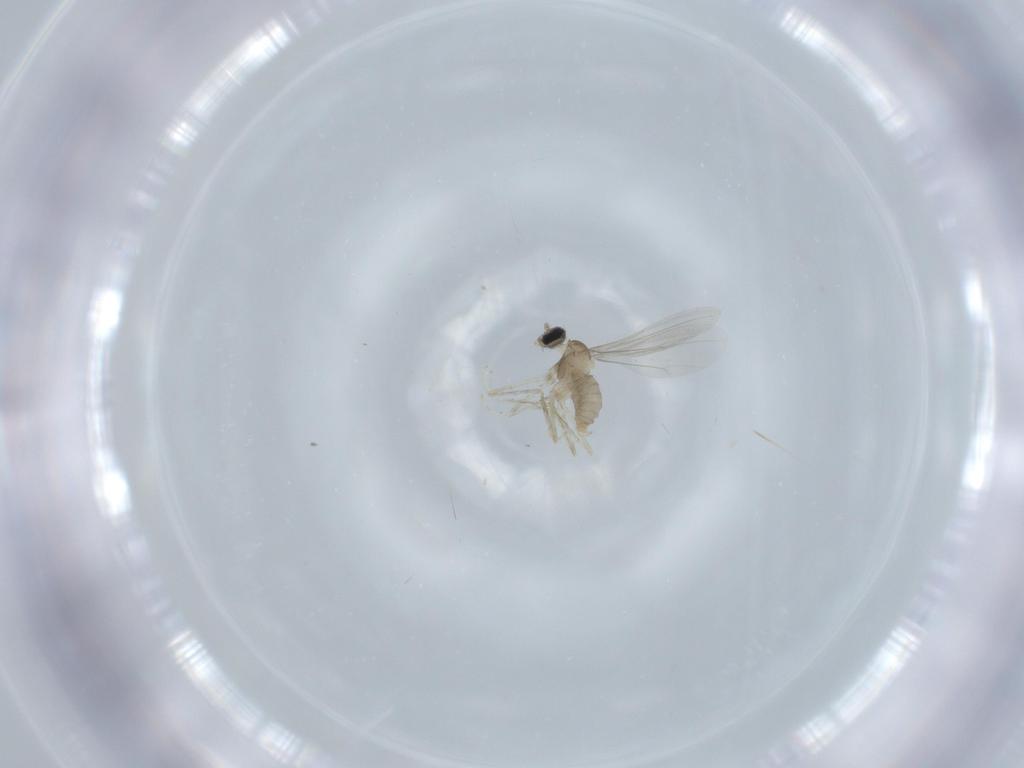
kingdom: Animalia
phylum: Arthropoda
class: Insecta
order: Diptera
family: Cecidomyiidae
